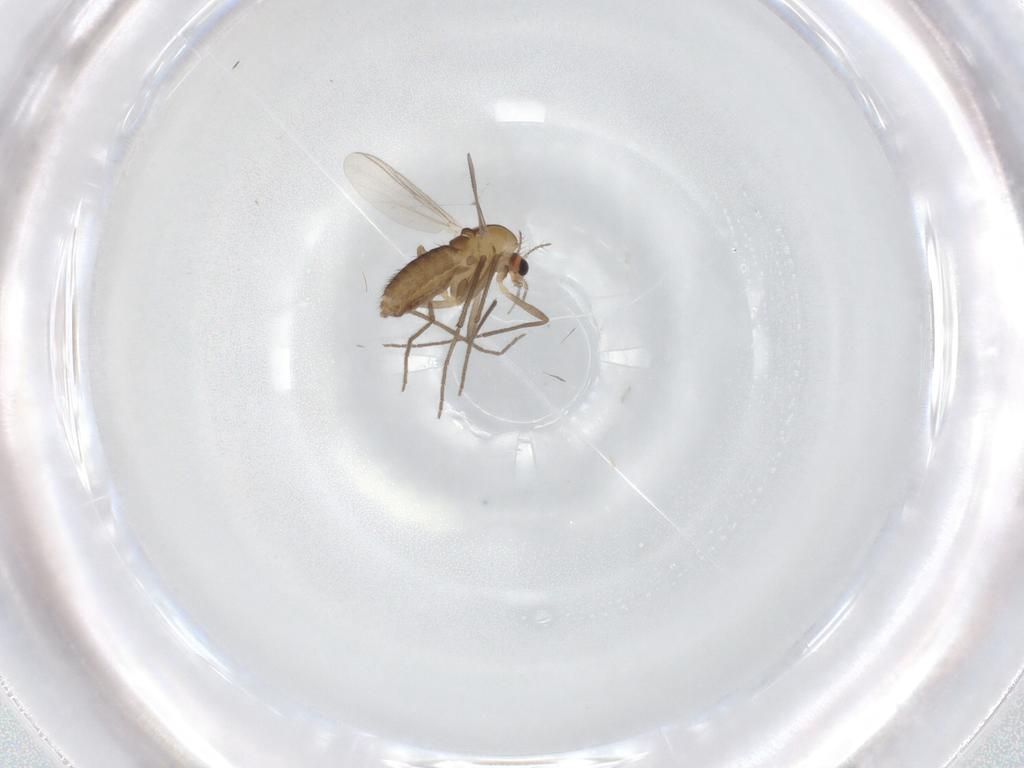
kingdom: Animalia
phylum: Arthropoda
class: Insecta
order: Diptera
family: Chironomidae
